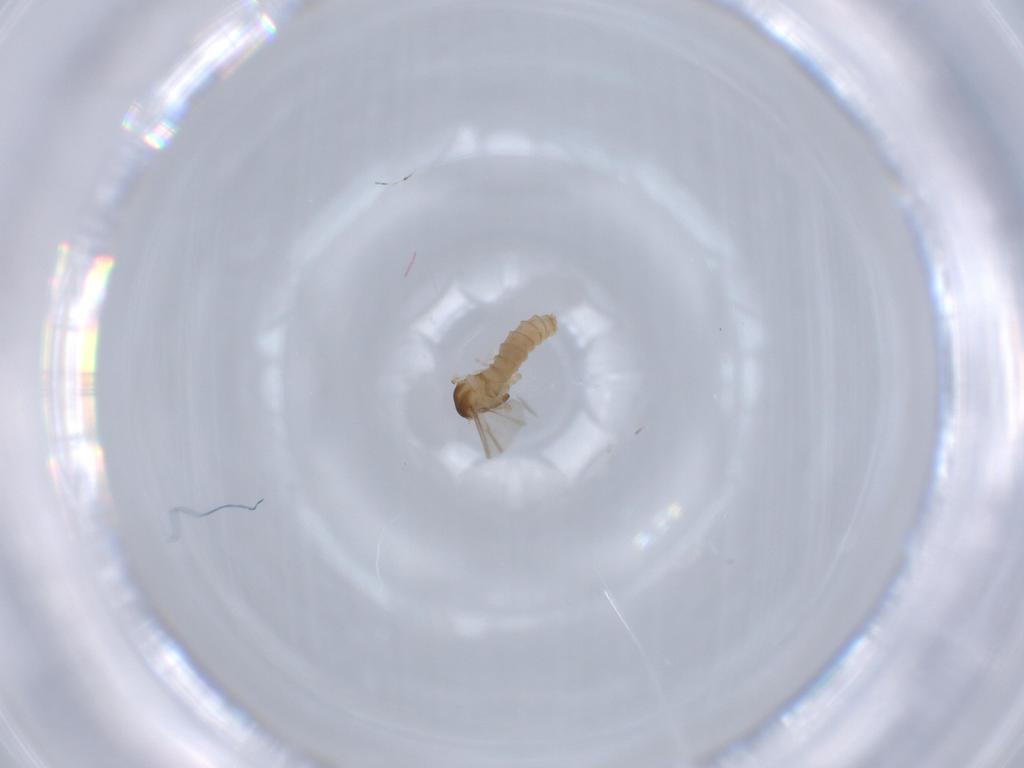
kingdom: Animalia
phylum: Arthropoda
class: Insecta
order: Diptera
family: Cecidomyiidae
